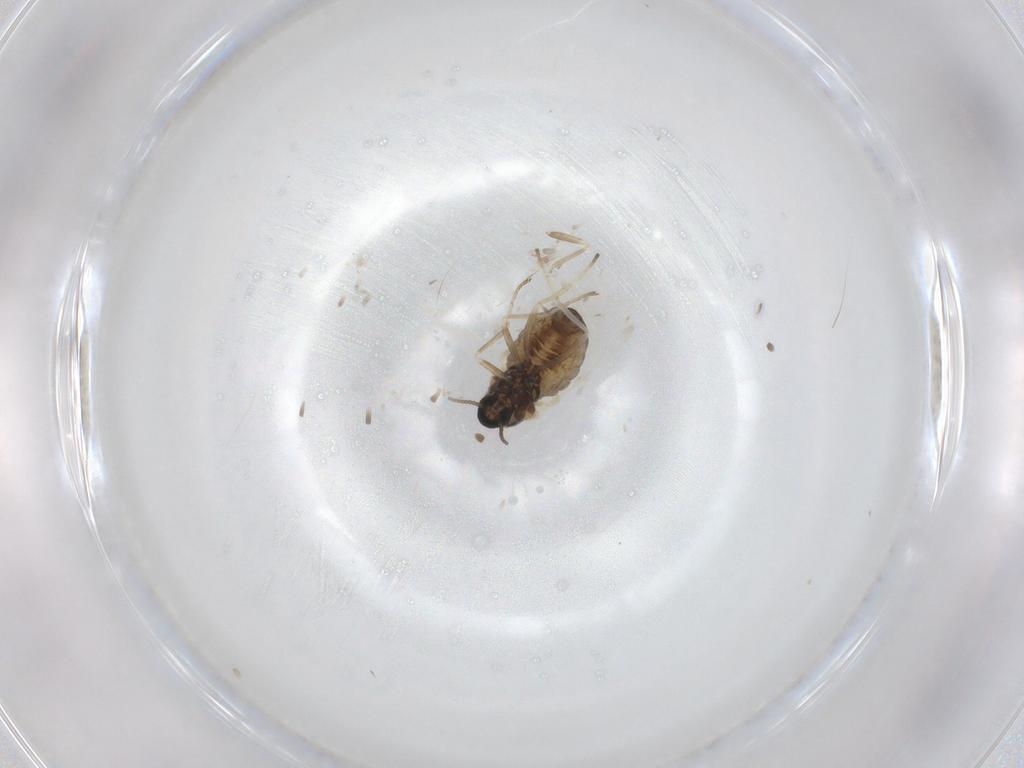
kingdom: Animalia
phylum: Arthropoda
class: Insecta
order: Diptera
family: Cecidomyiidae
